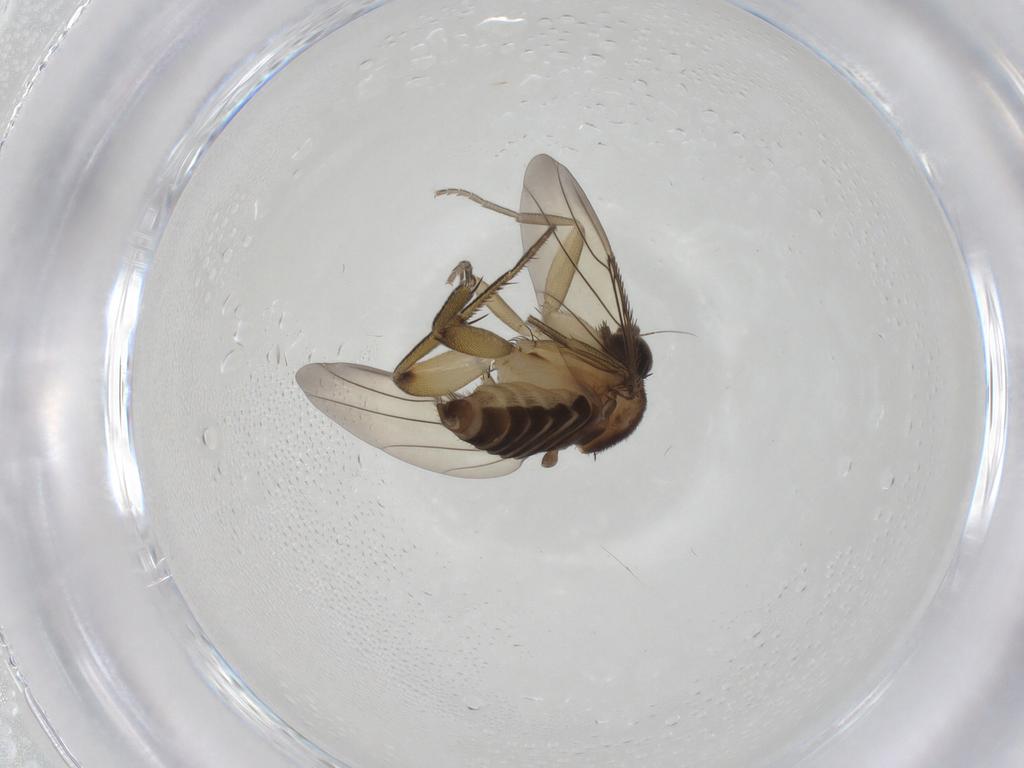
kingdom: Animalia
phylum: Arthropoda
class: Insecta
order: Diptera
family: Phoridae
